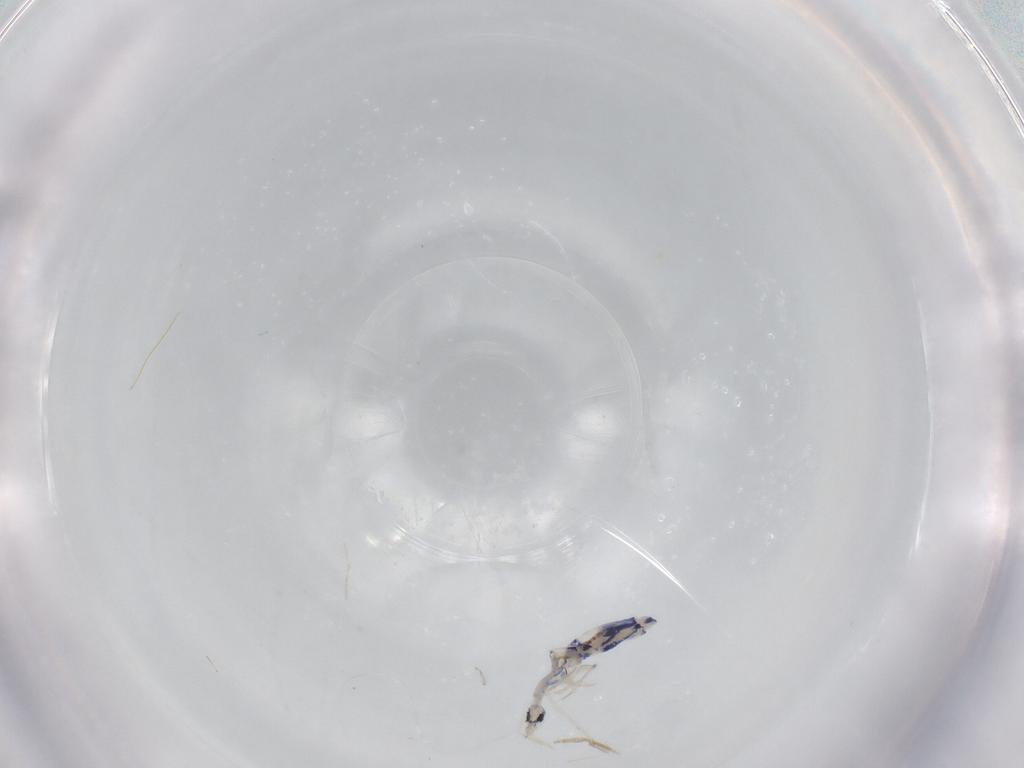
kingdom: Animalia
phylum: Arthropoda
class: Collembola
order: Entomobryomorpha
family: Entomobryidae
